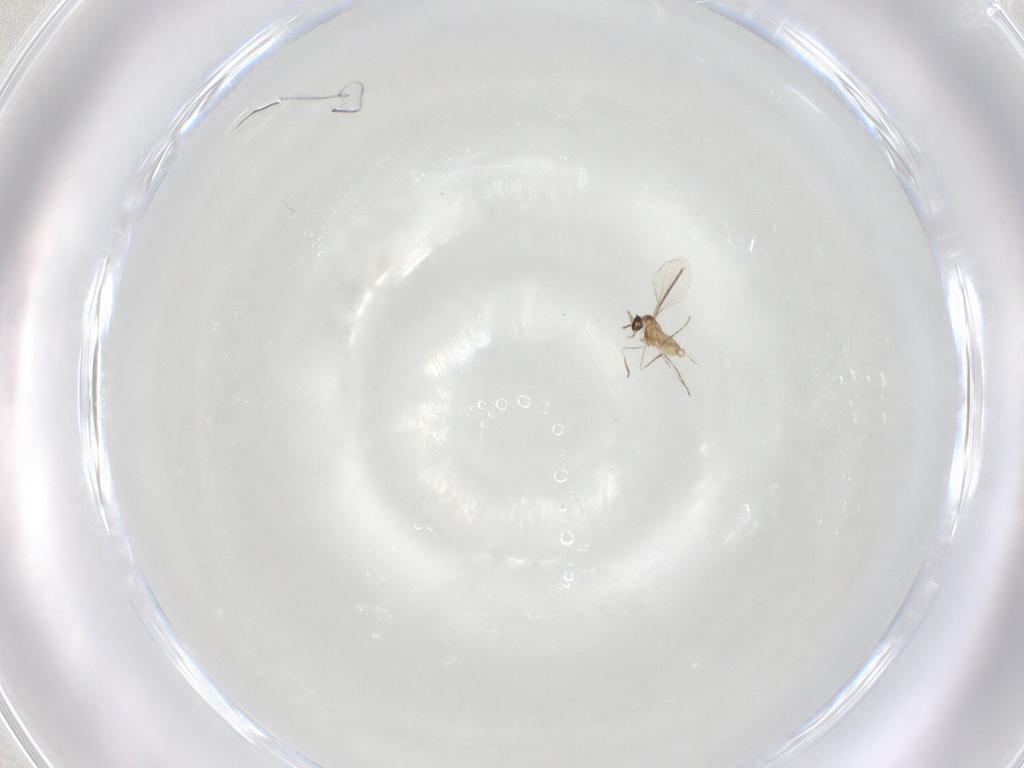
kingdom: Animalia
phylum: Arthropoda
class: Insecta
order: Diptera
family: Cecidomyiidae
